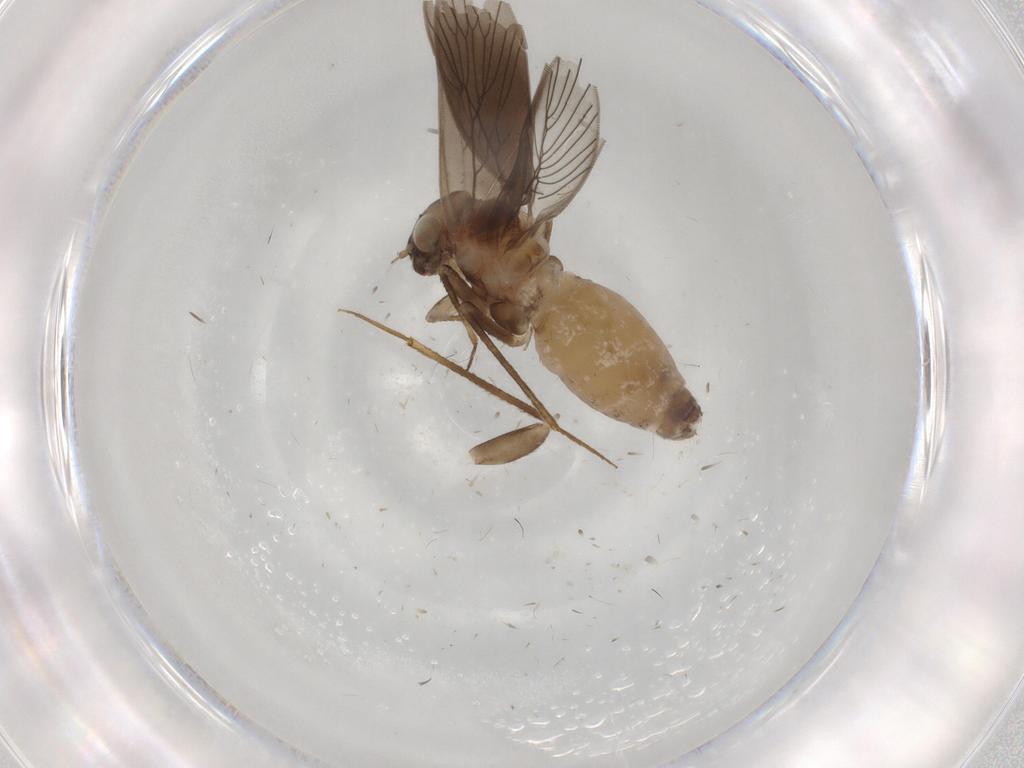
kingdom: Animalia
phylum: Arthropoda
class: Insecta
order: Psocodea
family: Lepidopsocidae
